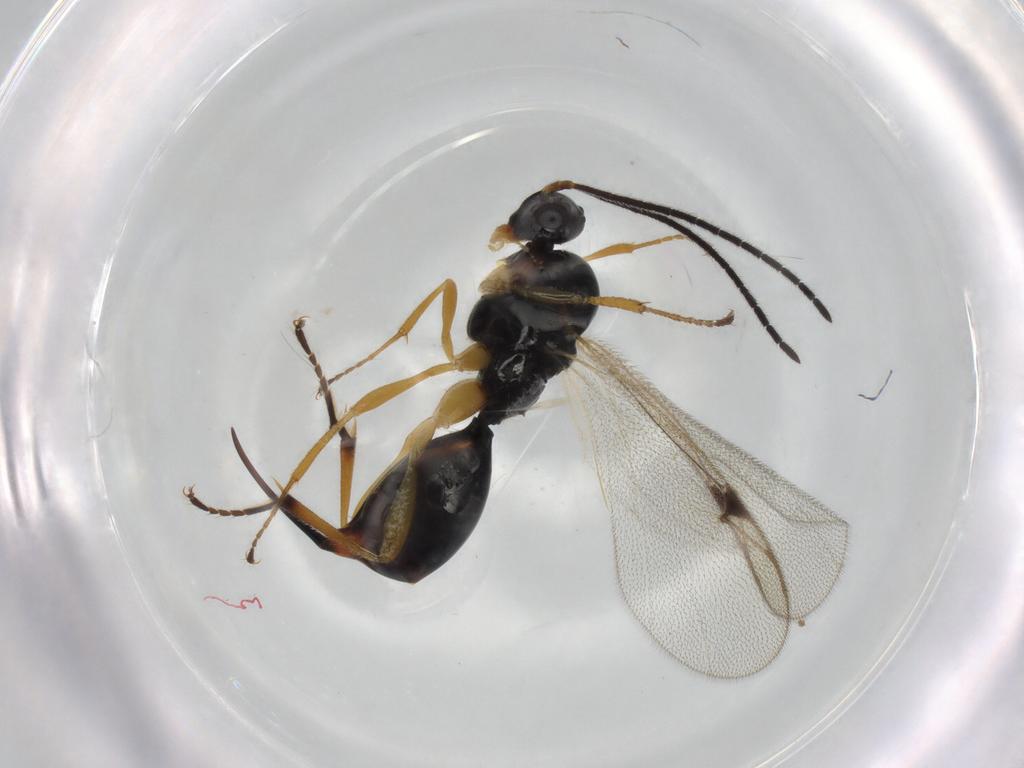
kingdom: Animalia
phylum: Arthropoda
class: Insecta
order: Hymenoptera
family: Proctotrupidae
